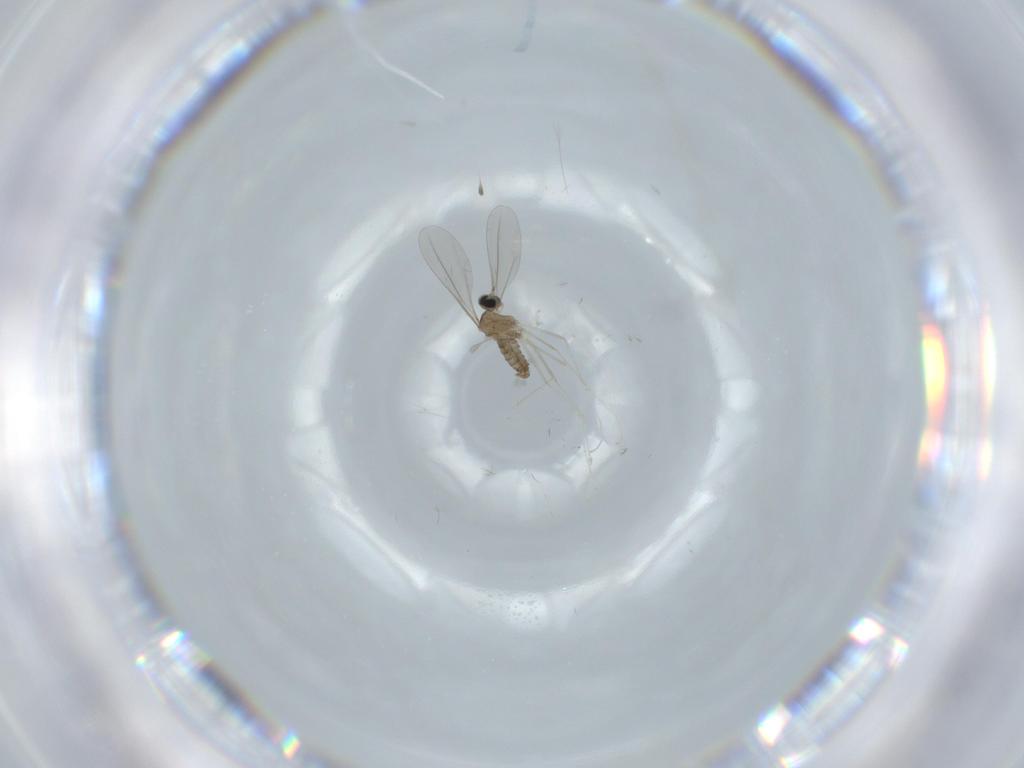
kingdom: Animalia
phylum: Arthropoda
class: Insecta
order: Diptera
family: Cecidomyiidae
